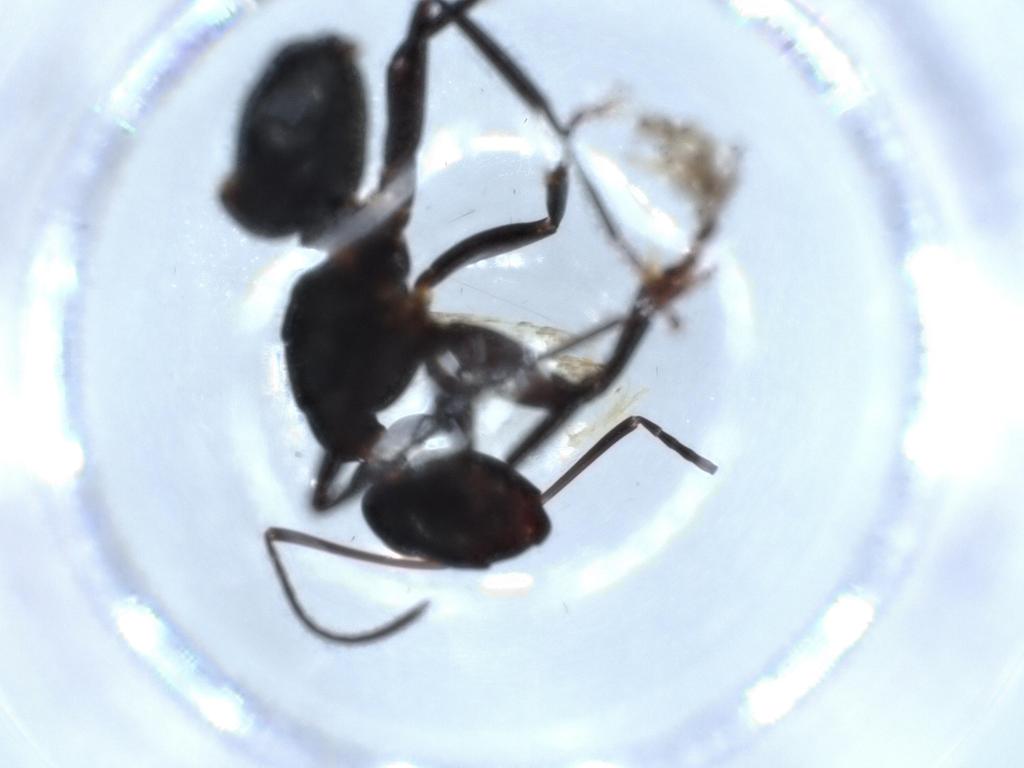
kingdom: Animalia
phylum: Arthropoda
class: Insecta
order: Hymenoptera
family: Formicidae
